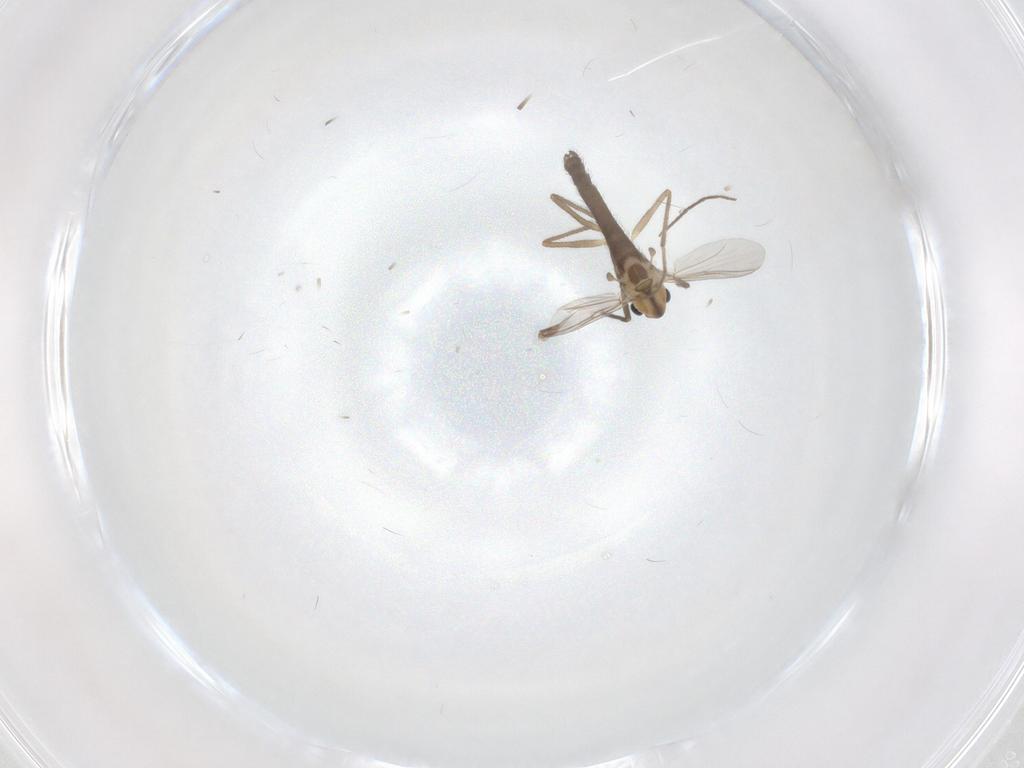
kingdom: Animalia
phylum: Arthropoda
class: Insecta
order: Diptera
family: Chironomidae
